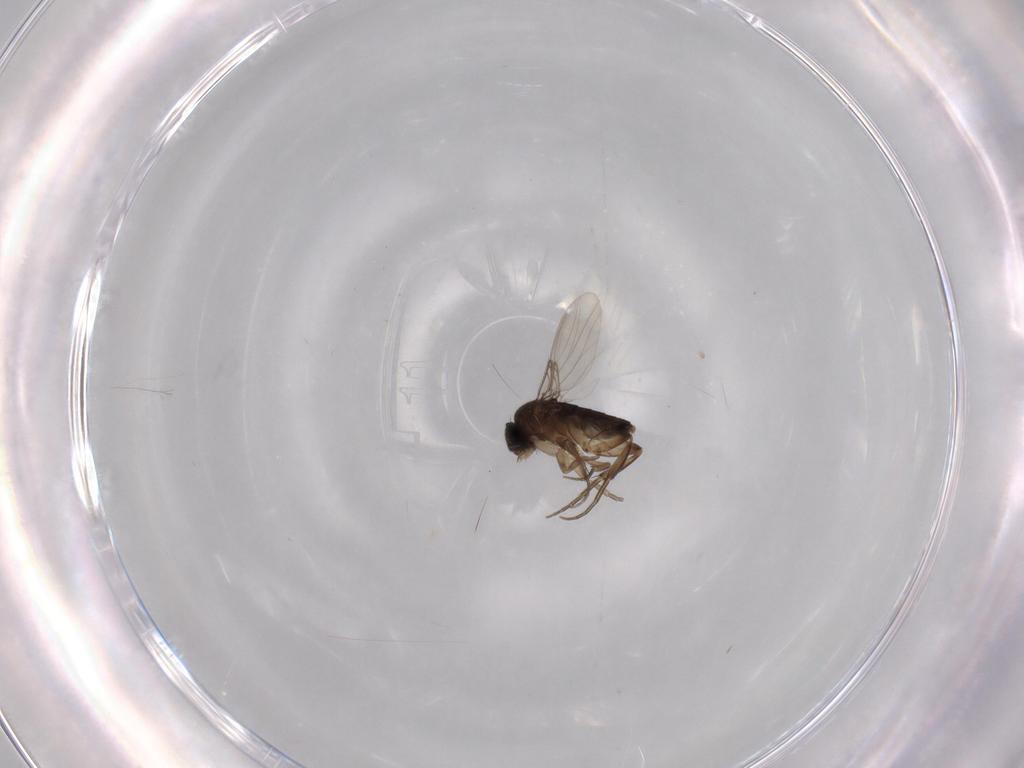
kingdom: Animalia
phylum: Arthropoda
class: Insecta
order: Diptera
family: Phoridae
